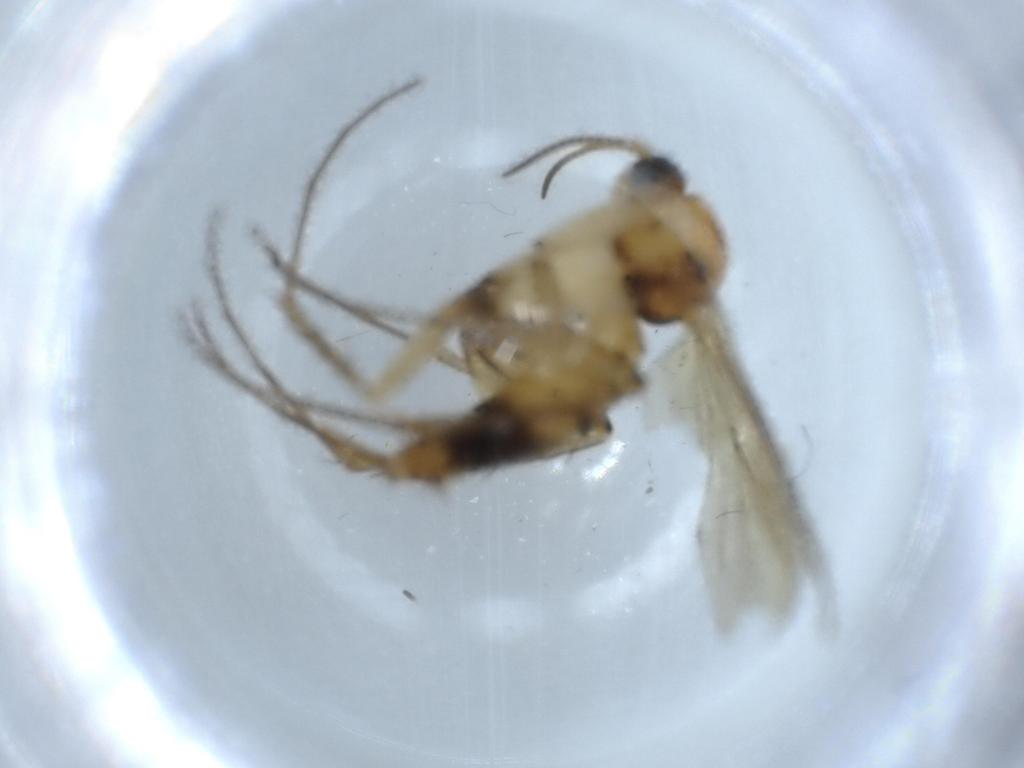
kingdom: Animalia
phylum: Arthropoda
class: Insecta
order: Diptera
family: Mycetophilidae
